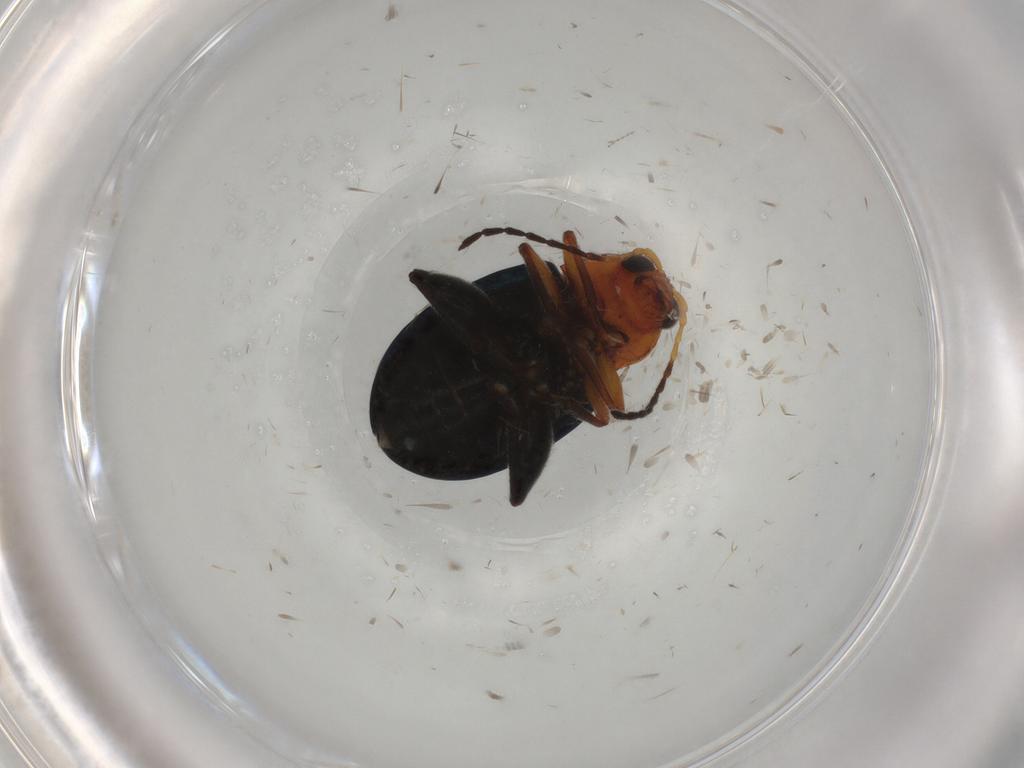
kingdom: Animalia
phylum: Arthropoda
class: Insecta
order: Coleoptera
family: Chrysomelidae
